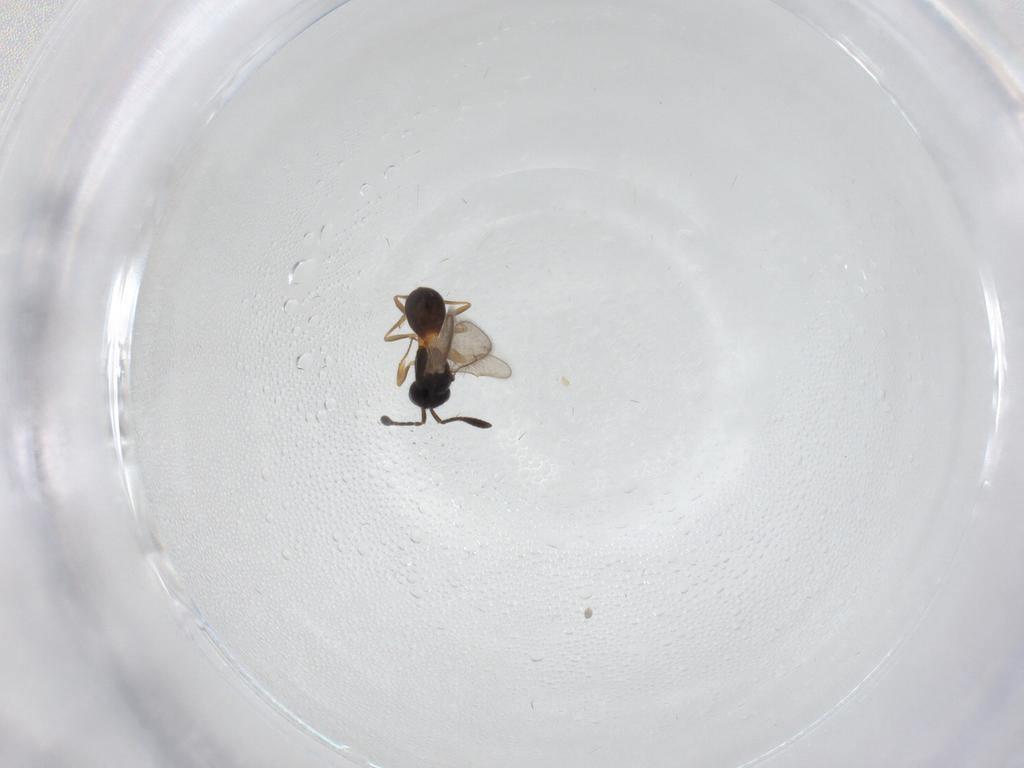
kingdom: Animalia
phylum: Arthropoda
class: Insecta
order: Hymenoptera
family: Scelionidae
